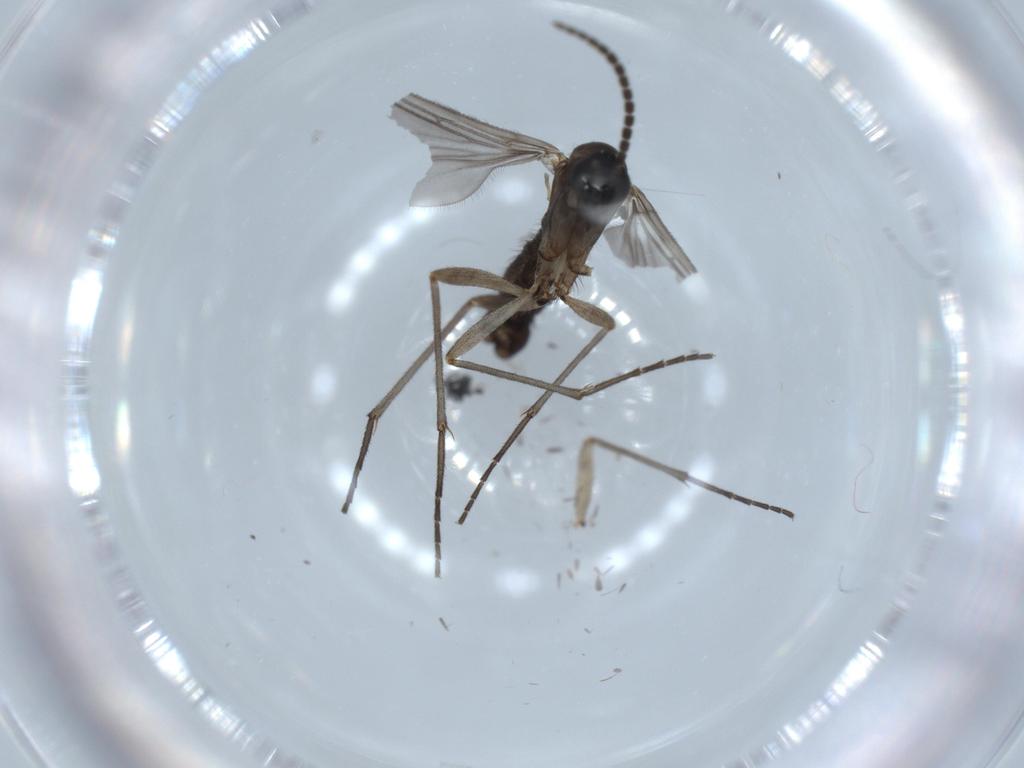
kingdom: Animalia
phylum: Arthropoda
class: Insecta
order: Diptera
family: Sciaridae
